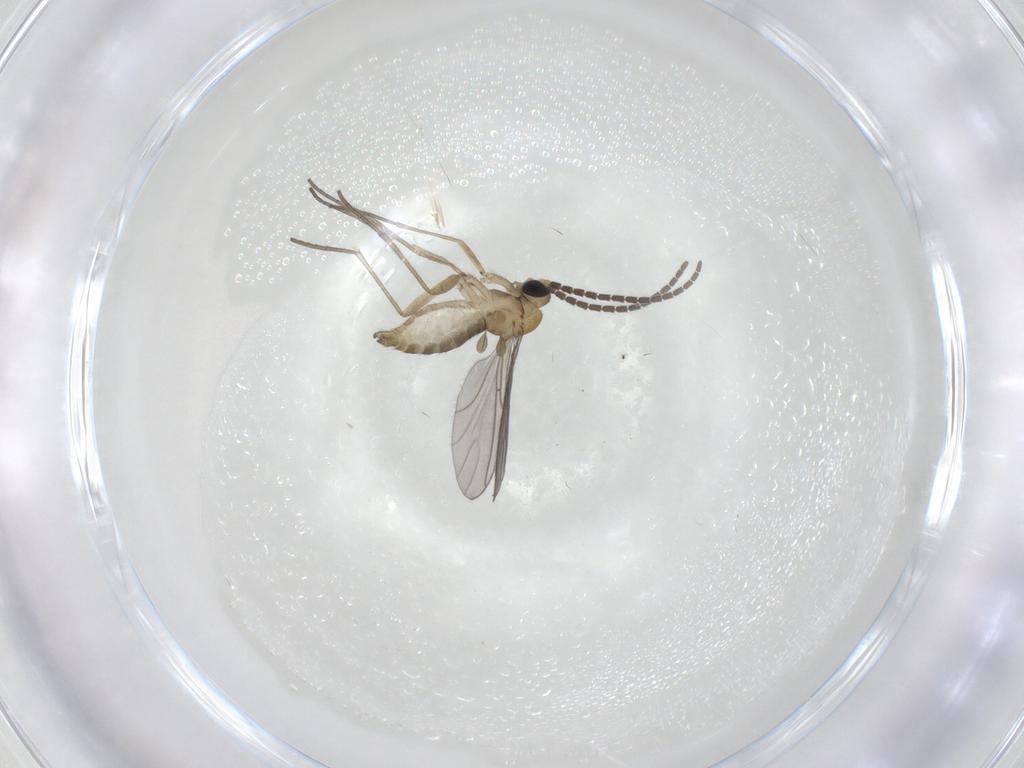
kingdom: Animalia
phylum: Arthropoda
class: Insecta
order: Diptera
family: Sciaridae
